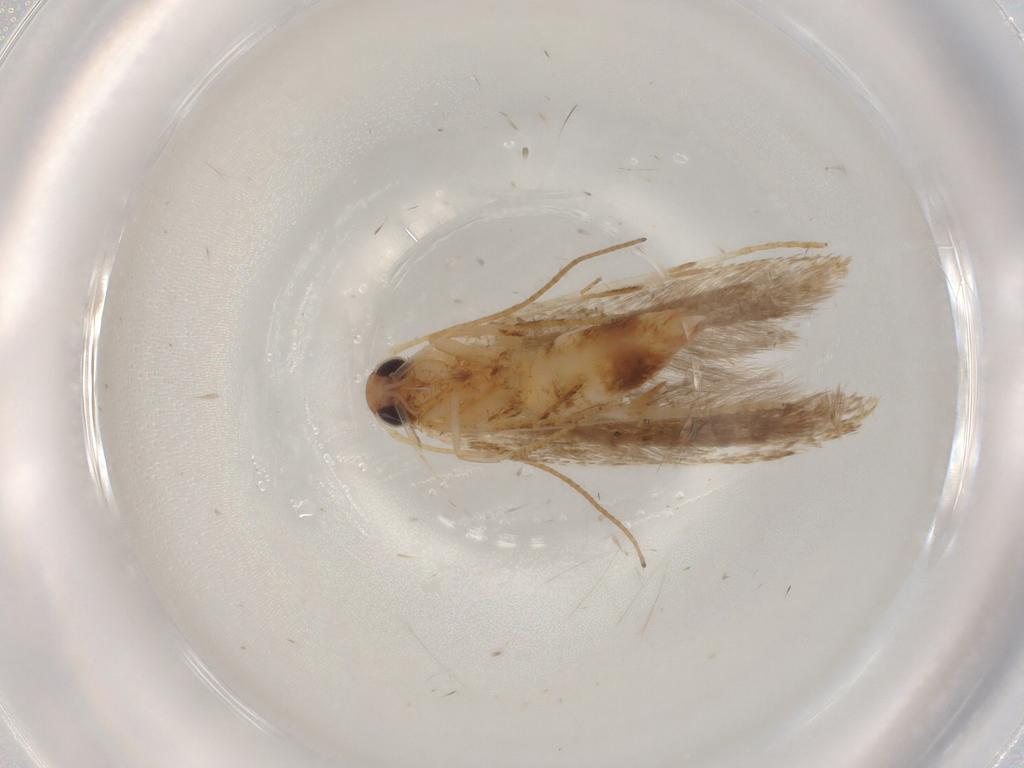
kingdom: Animalia
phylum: Arthropoda
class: Insecta
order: Lepidoptera
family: Gelechiidae
